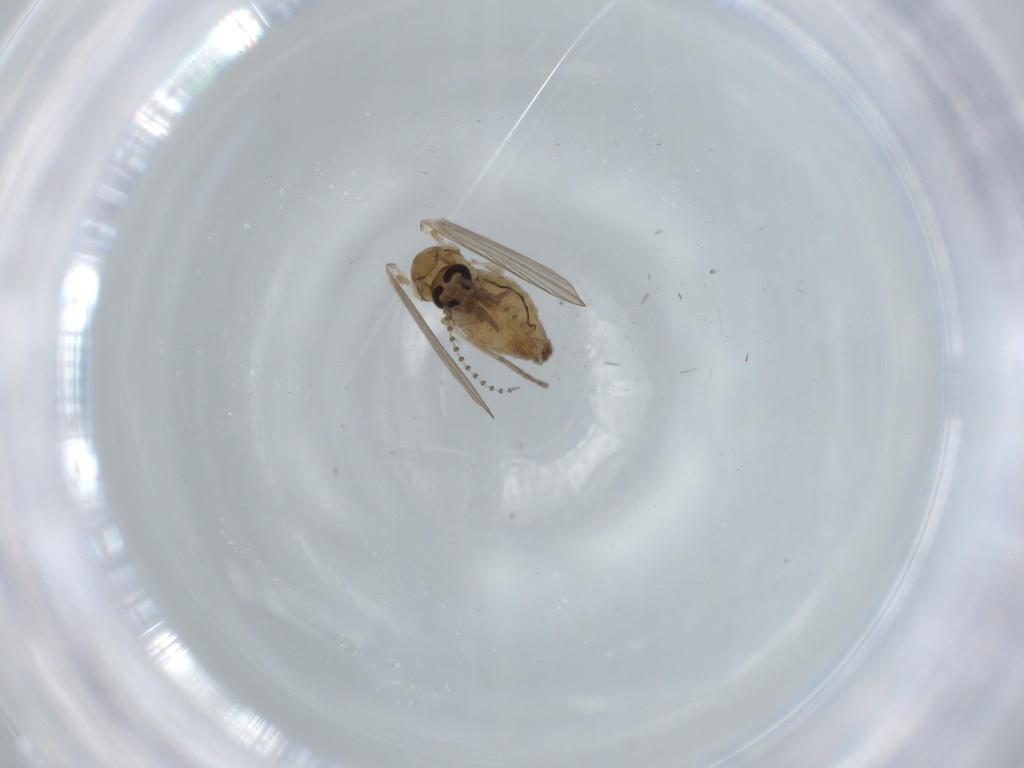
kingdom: Animalia
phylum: Arthropoda
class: Insecta
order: Diptera
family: Psychodidae
